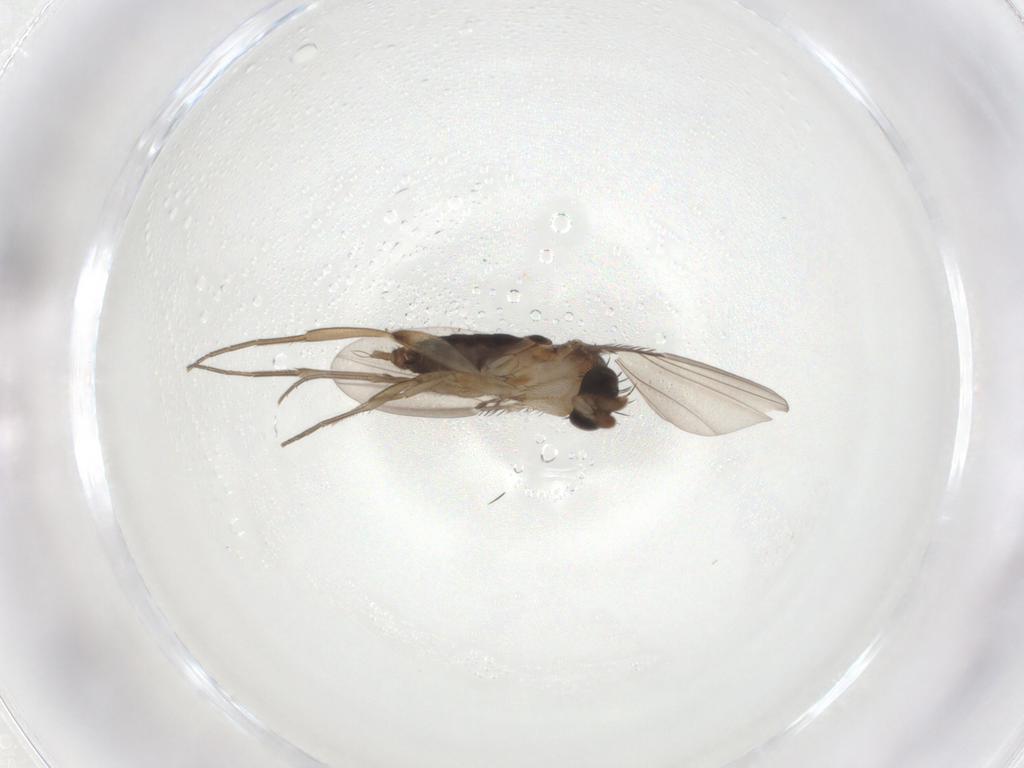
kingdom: Animalia
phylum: Arthropoda
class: Insecta
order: Diptera
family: Phoridae
